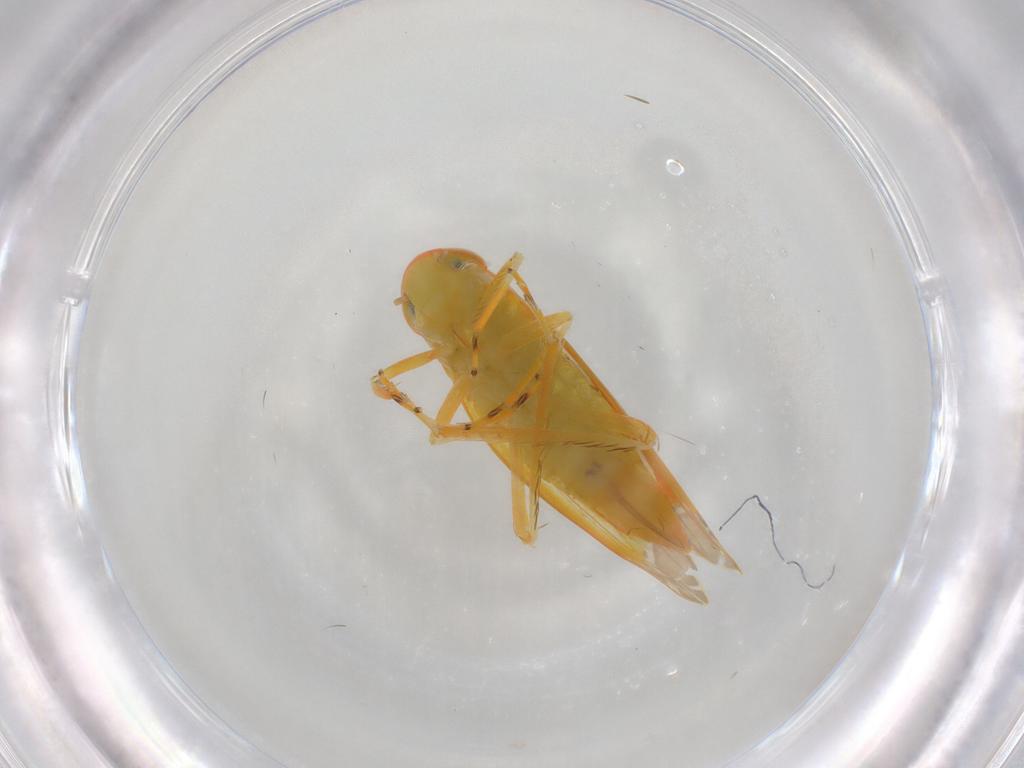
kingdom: Animalia
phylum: Arthropoda
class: Insecta
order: Hemiptera
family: Cicadellidae
